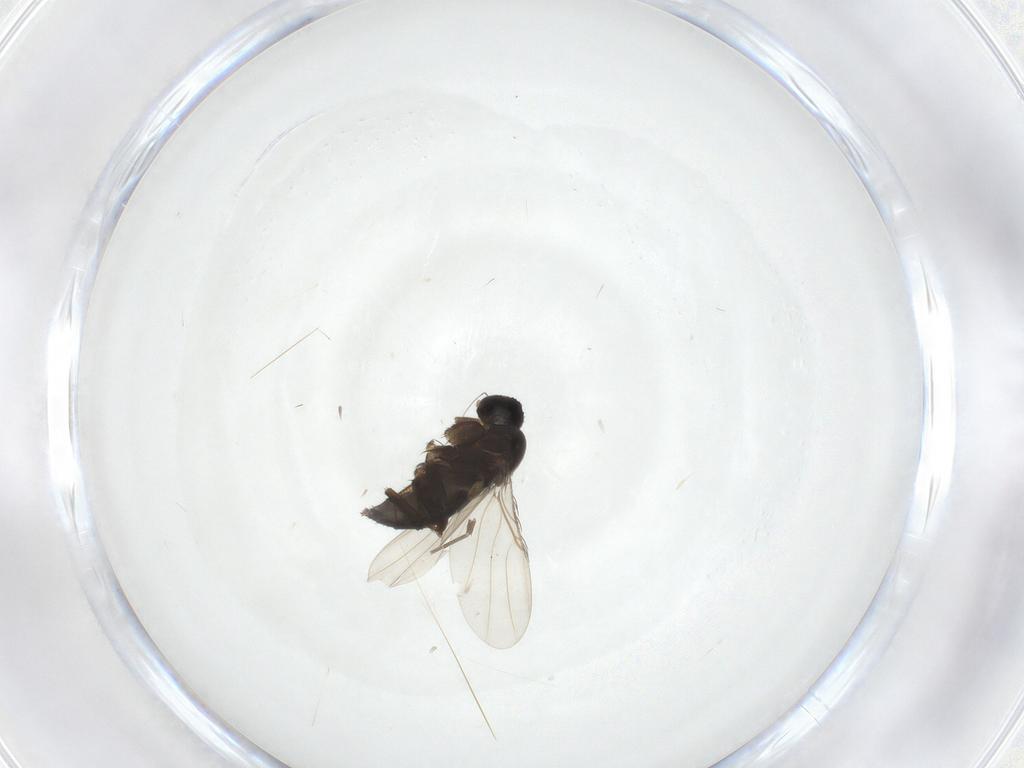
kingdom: Animalia
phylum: Arthropoda
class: Insecta
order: Diptera
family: Phoridae
